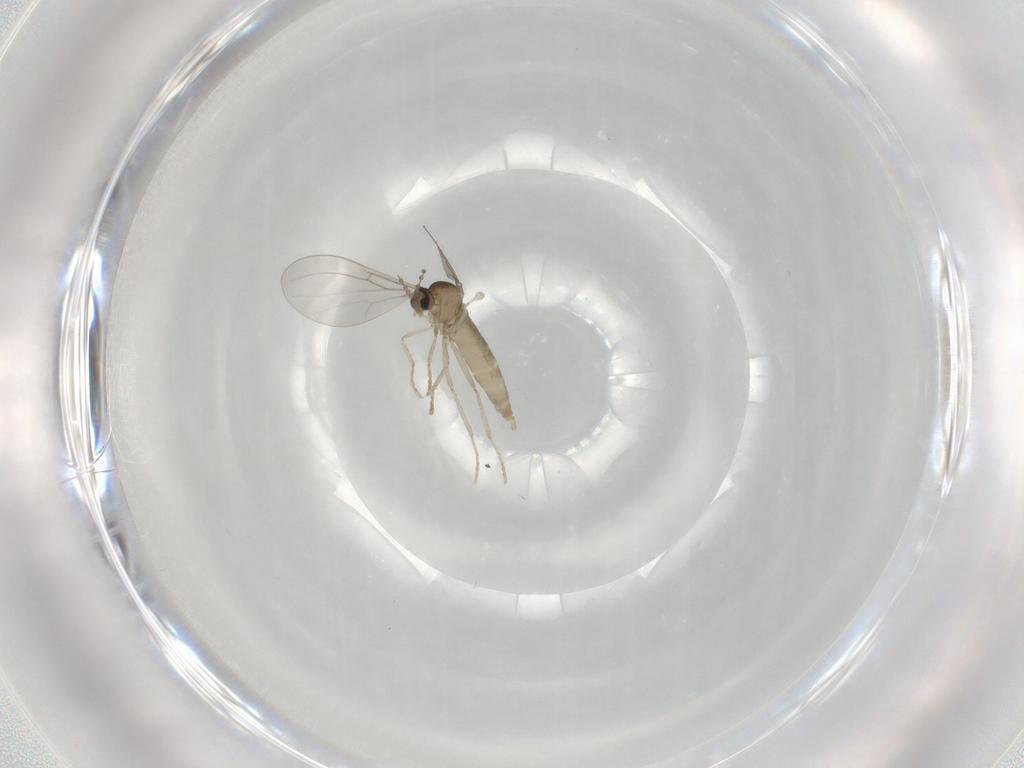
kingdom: Animalia
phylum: Arthropoda
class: Insecta
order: Diptera
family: Cecidomyiidae
